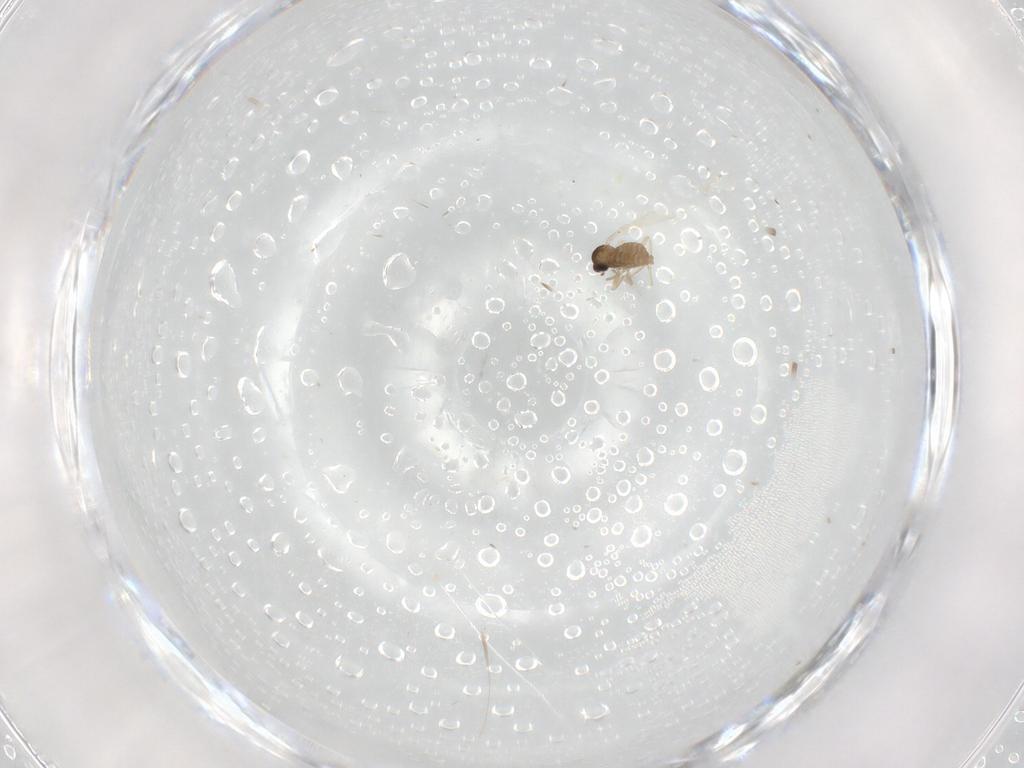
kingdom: Animalia
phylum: Arthropoda
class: Insecta
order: Diptera
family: Cecidomyiidae
